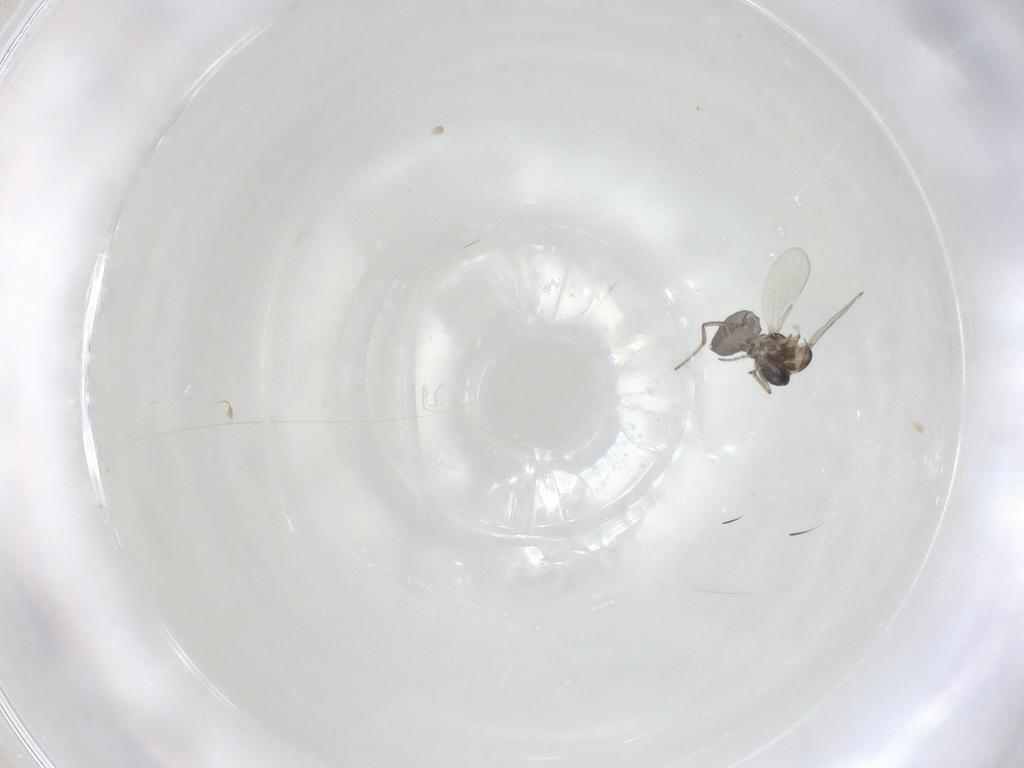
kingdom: Animalia
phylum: Arthropoda
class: Insecta
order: Diptera
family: Ceratopogonidae
